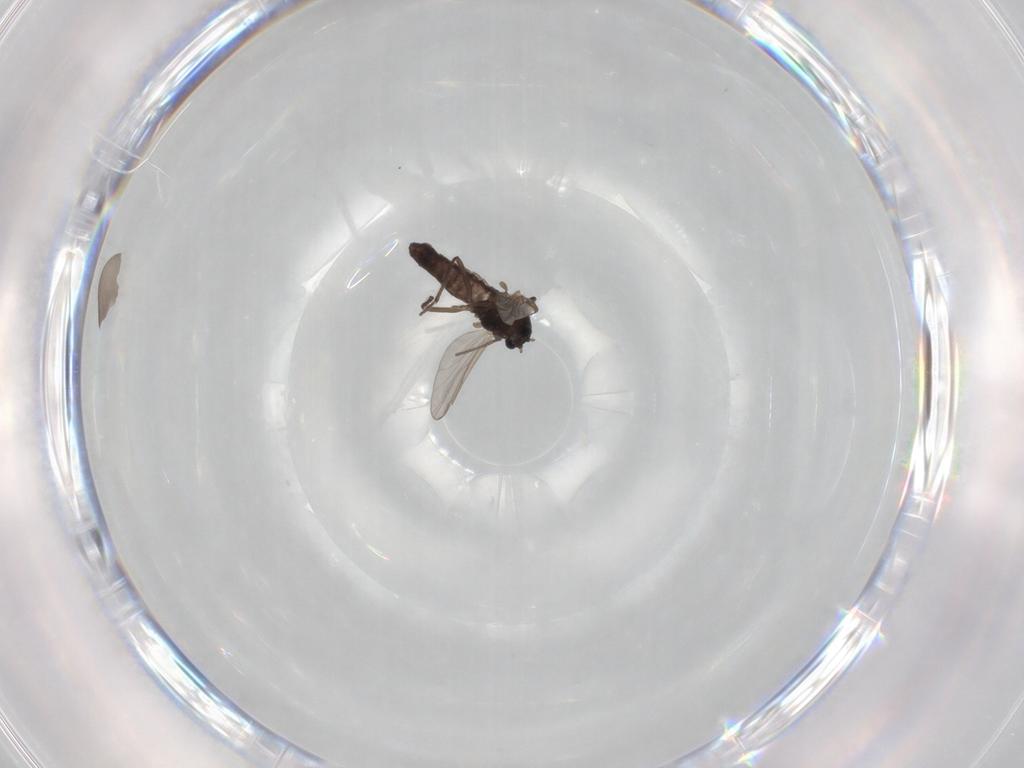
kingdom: Animalia
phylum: Arthropoda
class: Insecta
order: Diptera
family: Chironomidae
